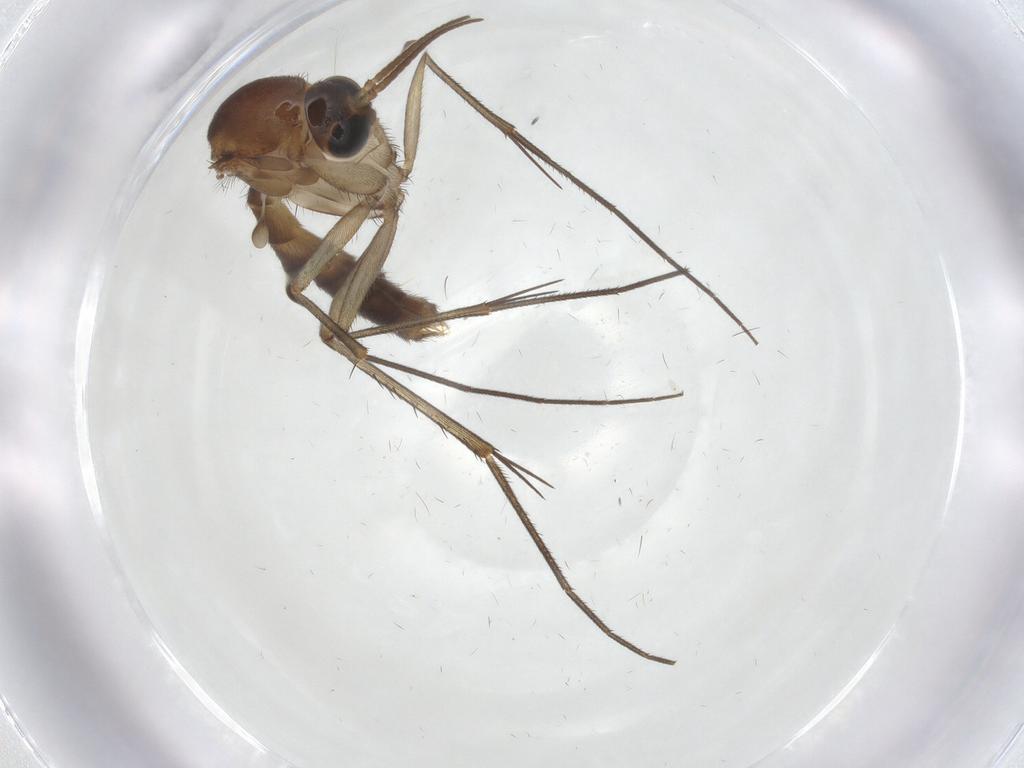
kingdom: Animalia
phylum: Arthropoda
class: Insecta
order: Diptera
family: Mycetophilidae
